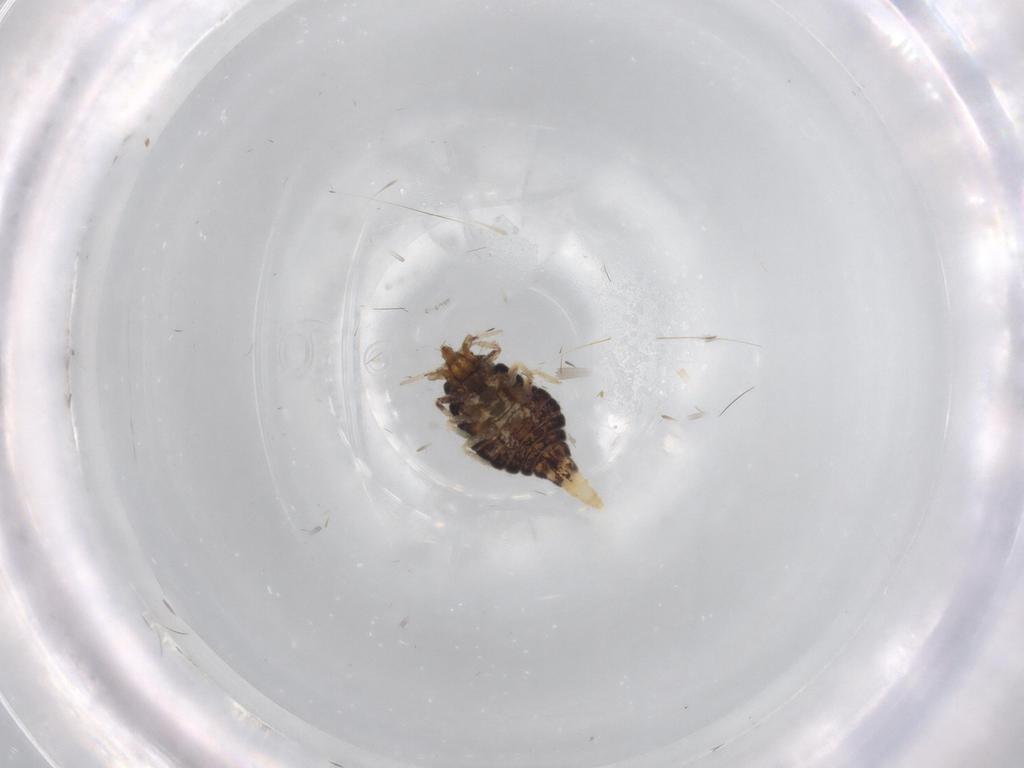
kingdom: Animalia
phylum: Arthropoda
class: Insecta
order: Neuroptera
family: Coniopterygidae
